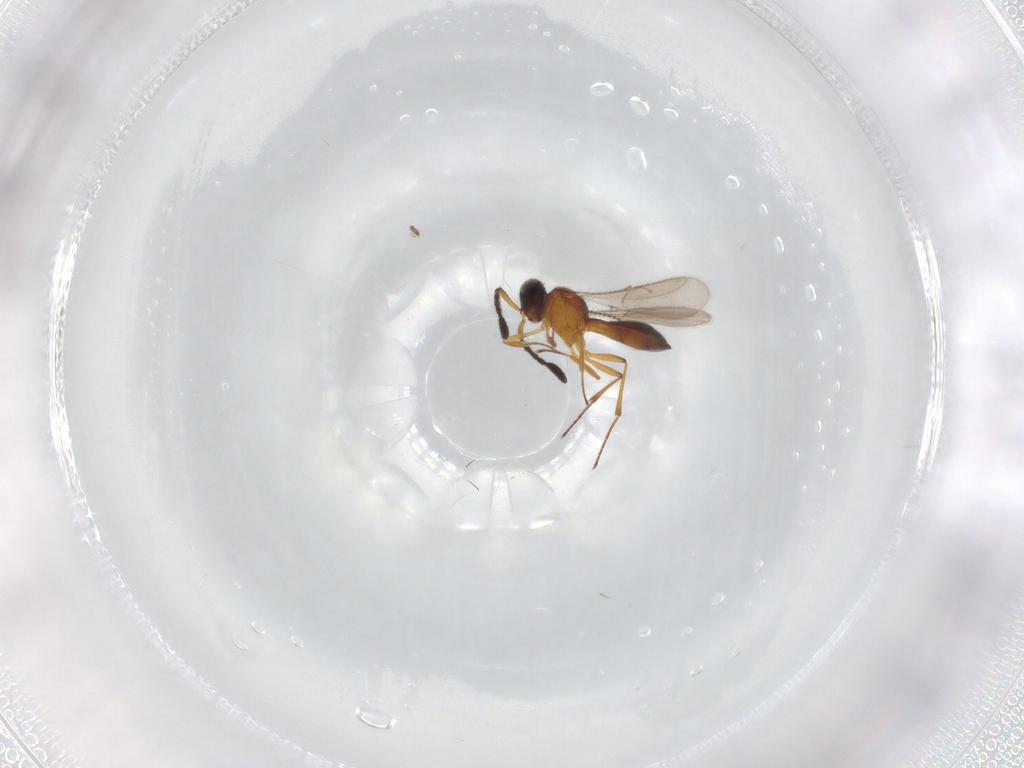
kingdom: Animalia
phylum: Arthropoda
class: Insecta
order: Hymenoptera
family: Scelionidae
